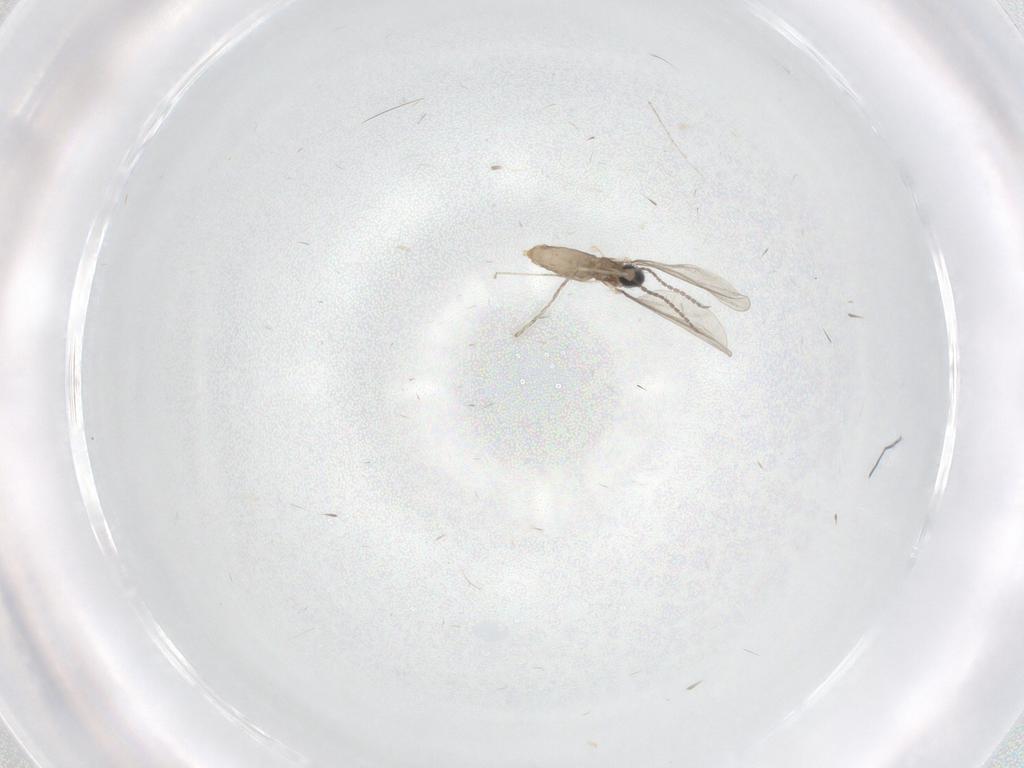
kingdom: Animalia
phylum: Arthropoda
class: Insecta
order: Diptera
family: Cecidomyiidae
